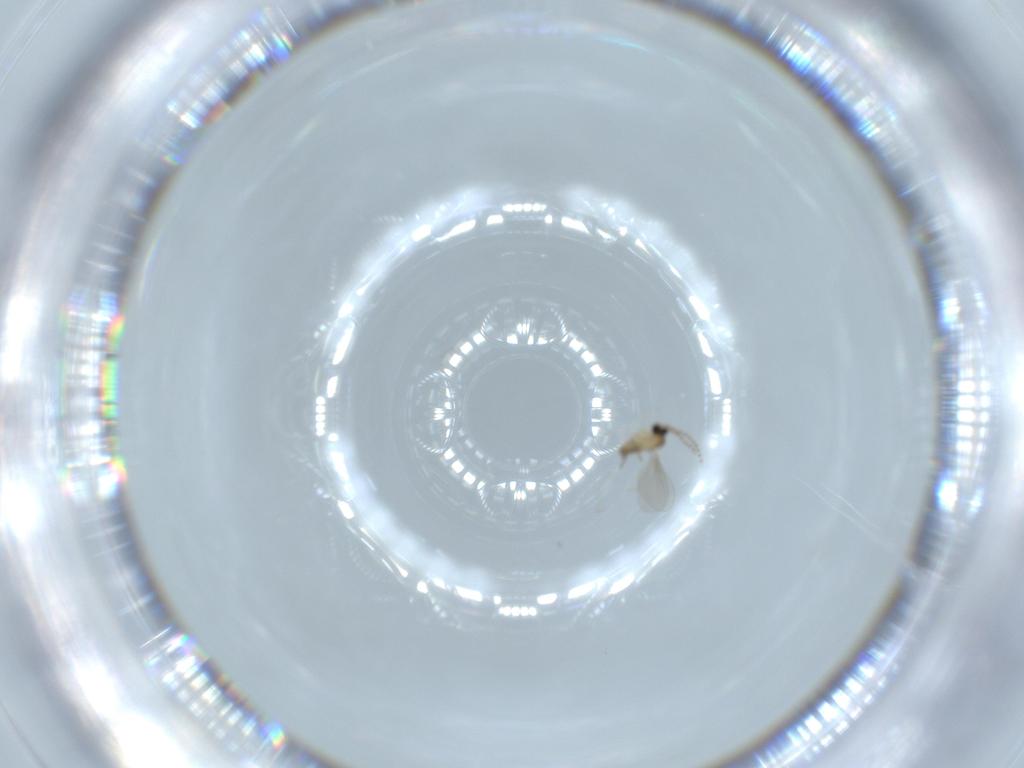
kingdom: Animalia
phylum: Arthropoda
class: Insecta
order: Diptera
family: Cecidomyiidae
